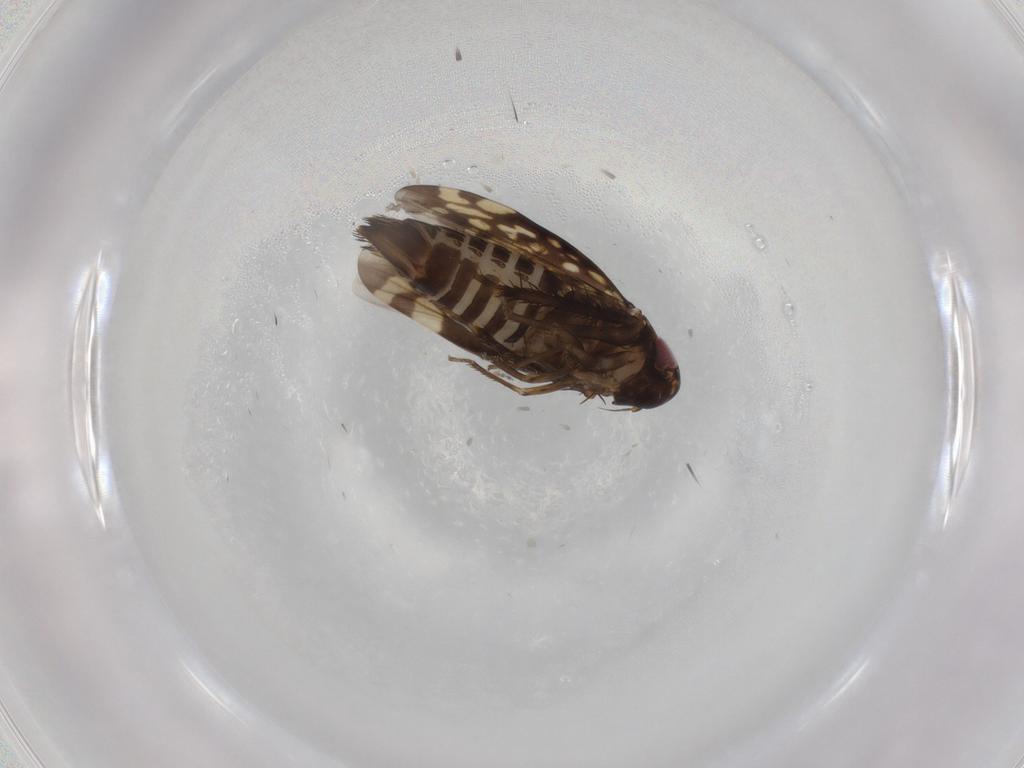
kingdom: Animalia
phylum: Arthropoda
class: Insecta
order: Hemiptera
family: Cicadellidae
